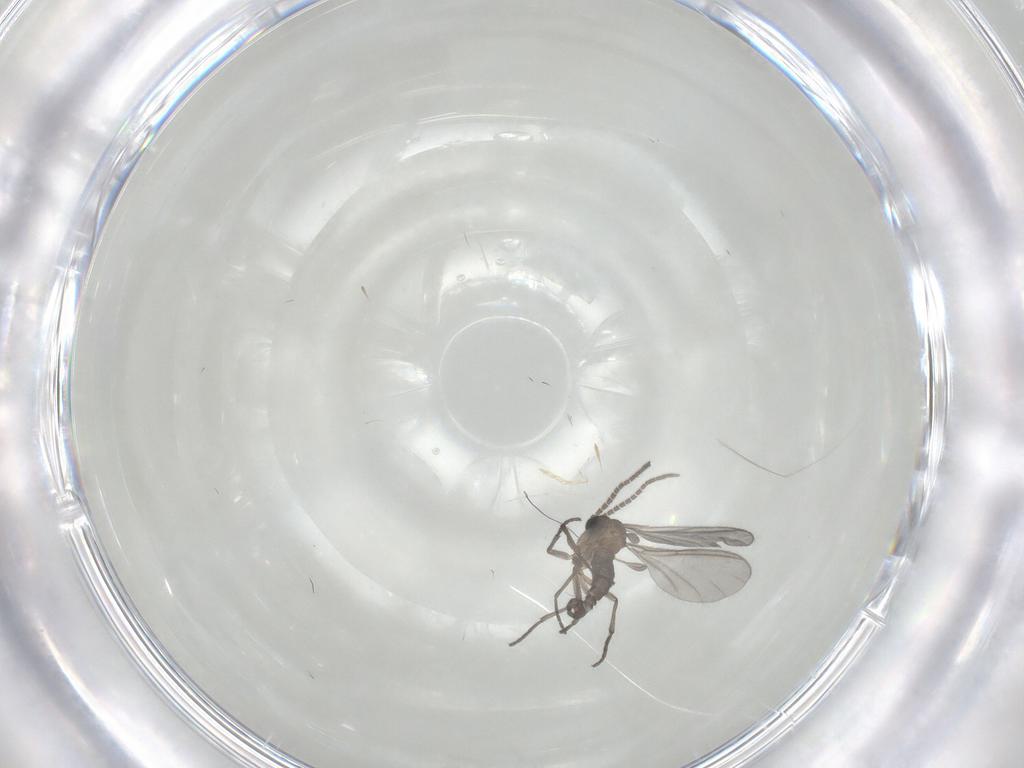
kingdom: Animalia
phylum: Arthropoda
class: Insecta
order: Diptera
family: Sciaridae
